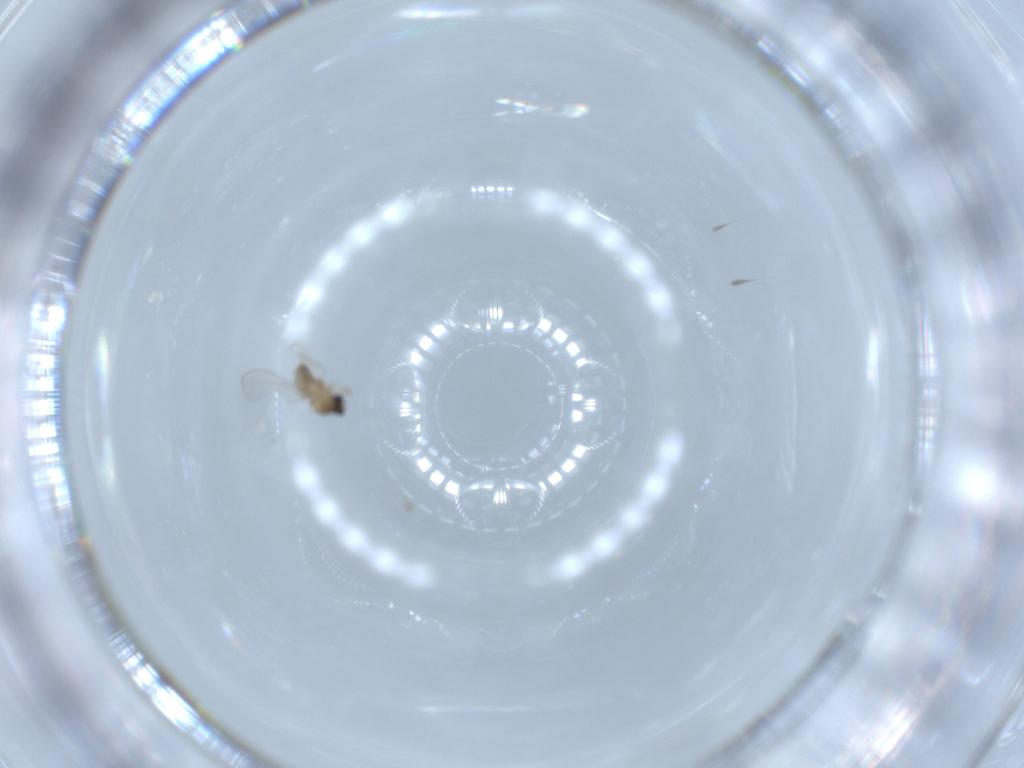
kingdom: Animalia
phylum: Arthropoda
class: Insecta
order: Diptera
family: Cecidomyiidae
